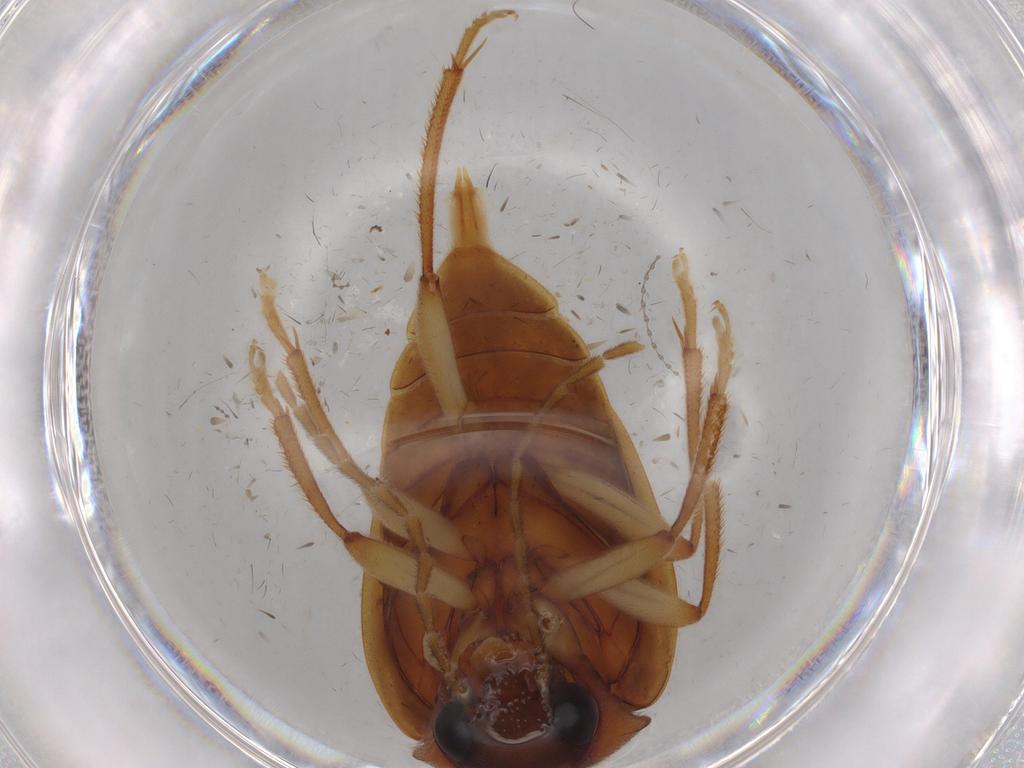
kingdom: Animalia
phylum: Arthropoda
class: Insecta
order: Coleoptera
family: Ptilodactylidae
